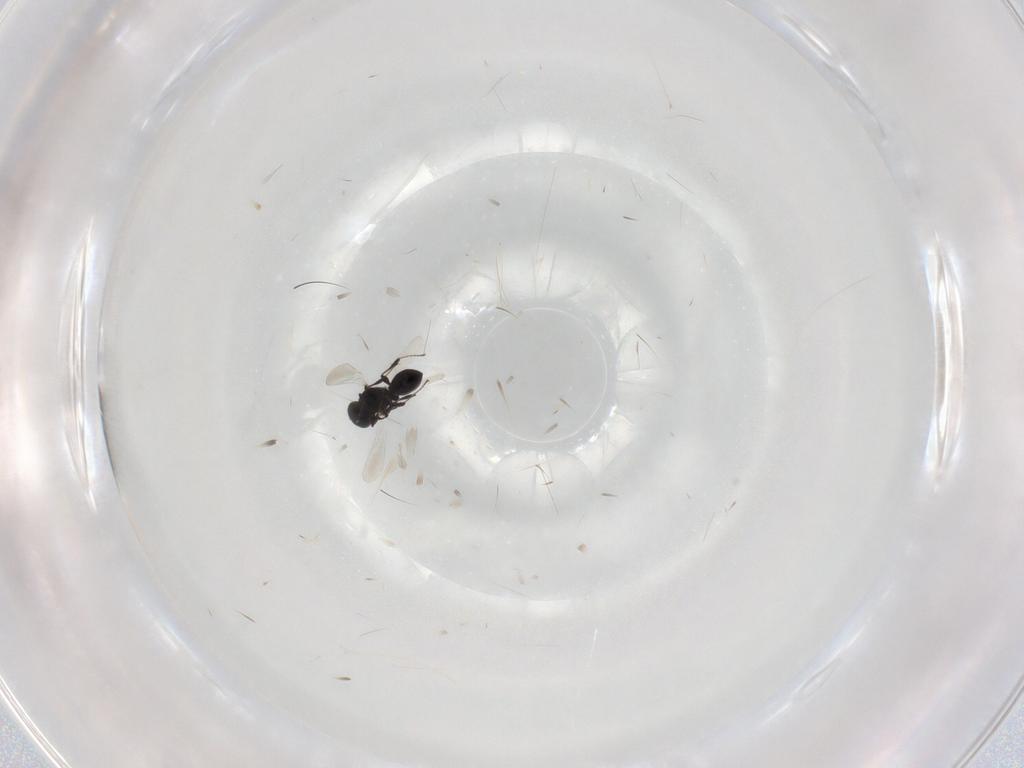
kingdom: Animalia
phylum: Arthropoda
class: Insecta
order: Hymenoptera
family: Platygastridae
